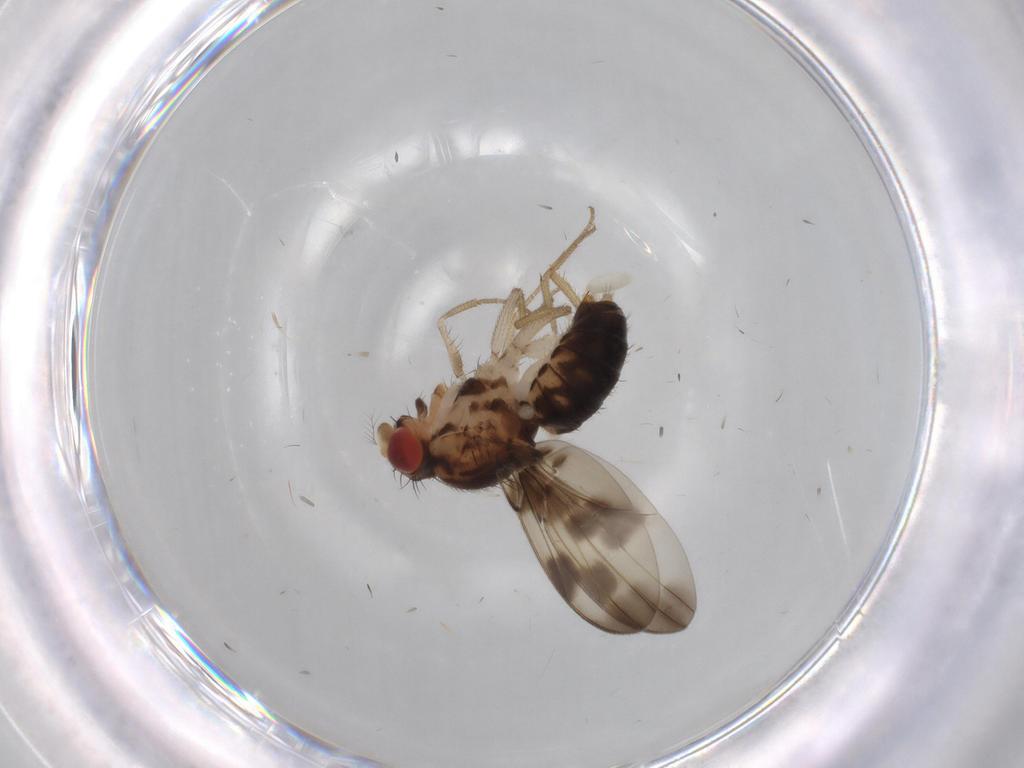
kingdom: Animalia
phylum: Arthropoda
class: Insecta
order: Diptera
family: Drosophilidae
